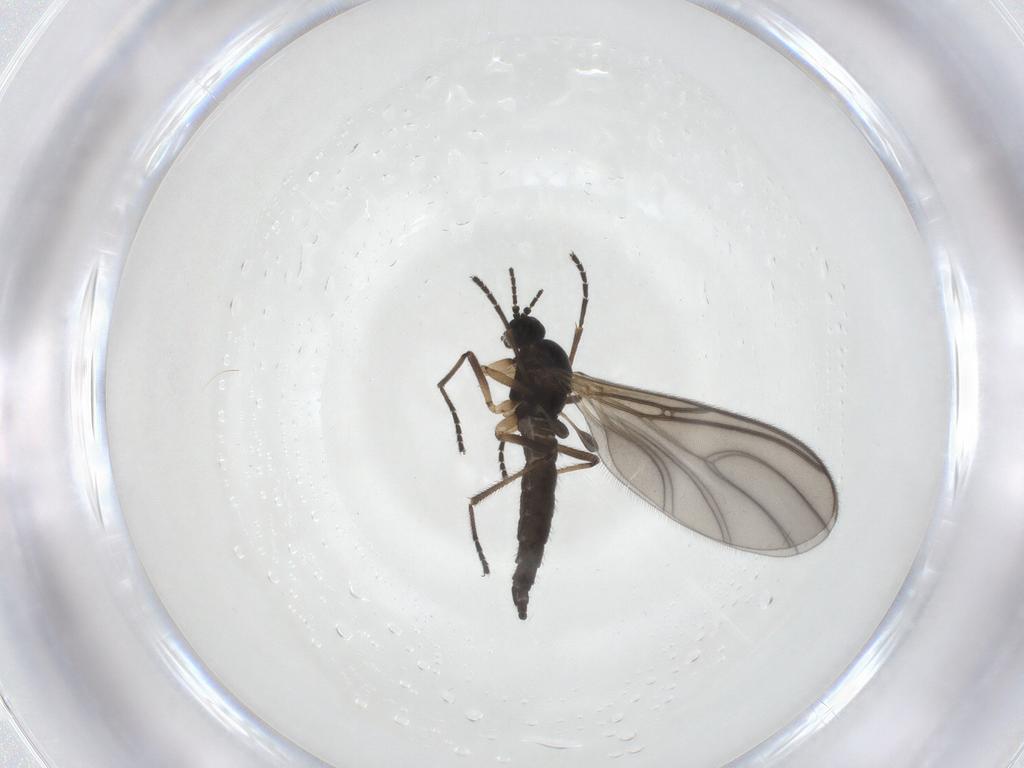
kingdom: Animalia
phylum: Arthropoda
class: Insecta
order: Diptera
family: Sciaridae
